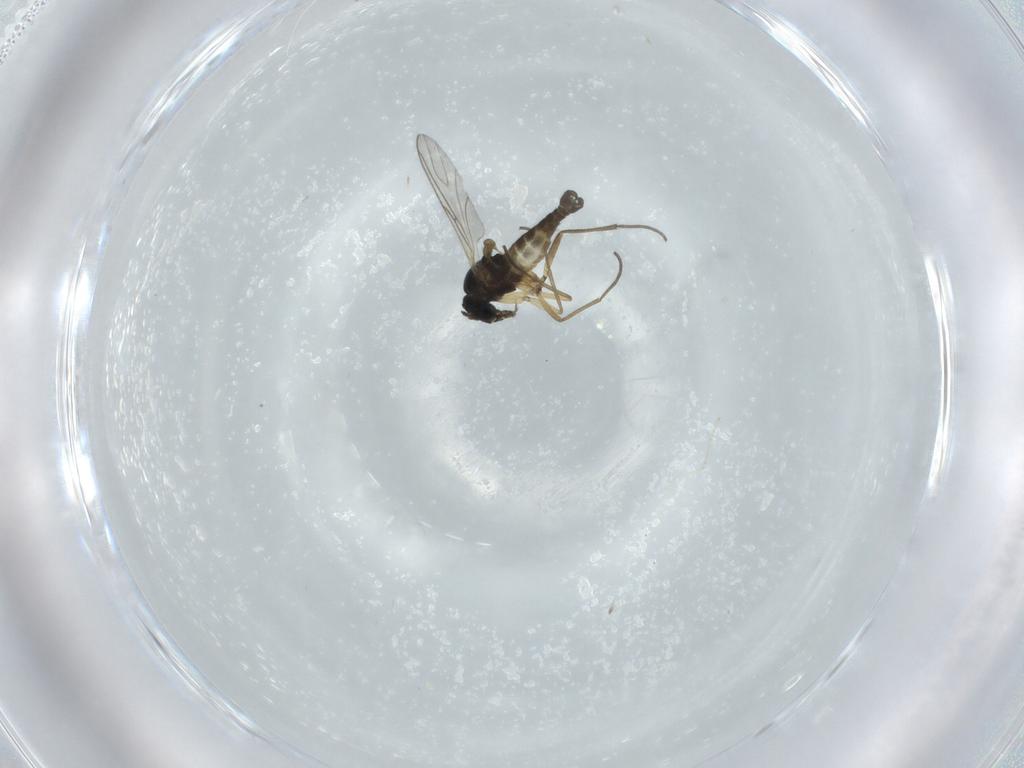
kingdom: Animalia
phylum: Arthropoda
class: Insecta
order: Diptera
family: Sciaridae
